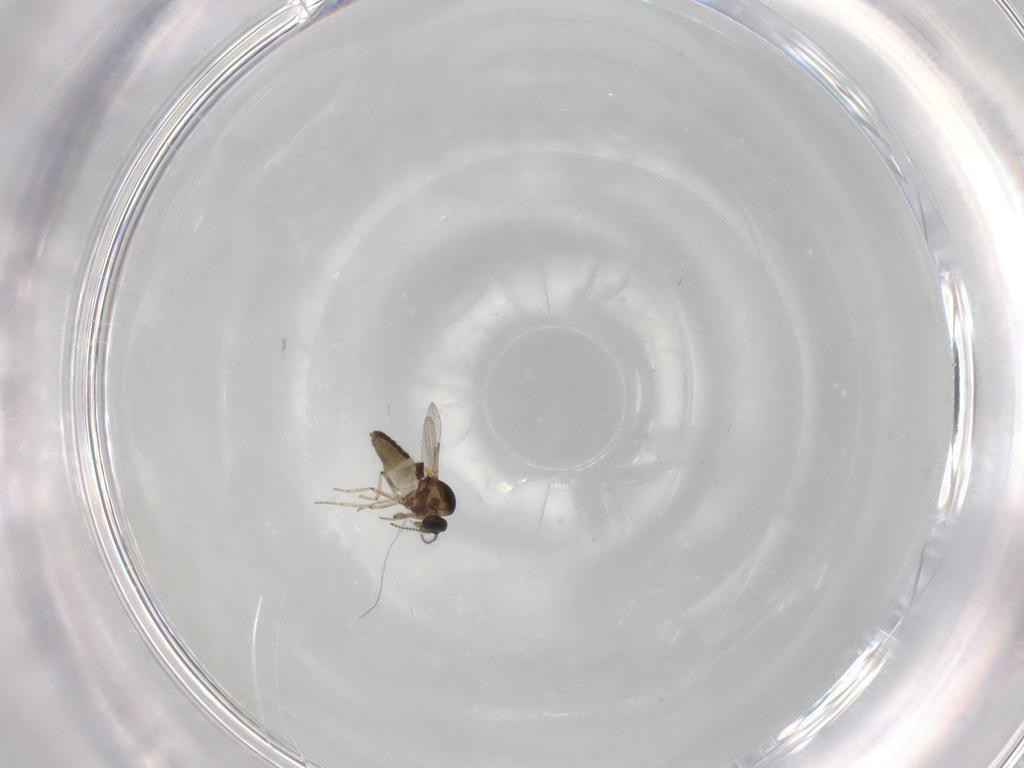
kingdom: Animalia
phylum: Arthropoda
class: Insecta
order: Diptera
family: Ceratopogonidae
